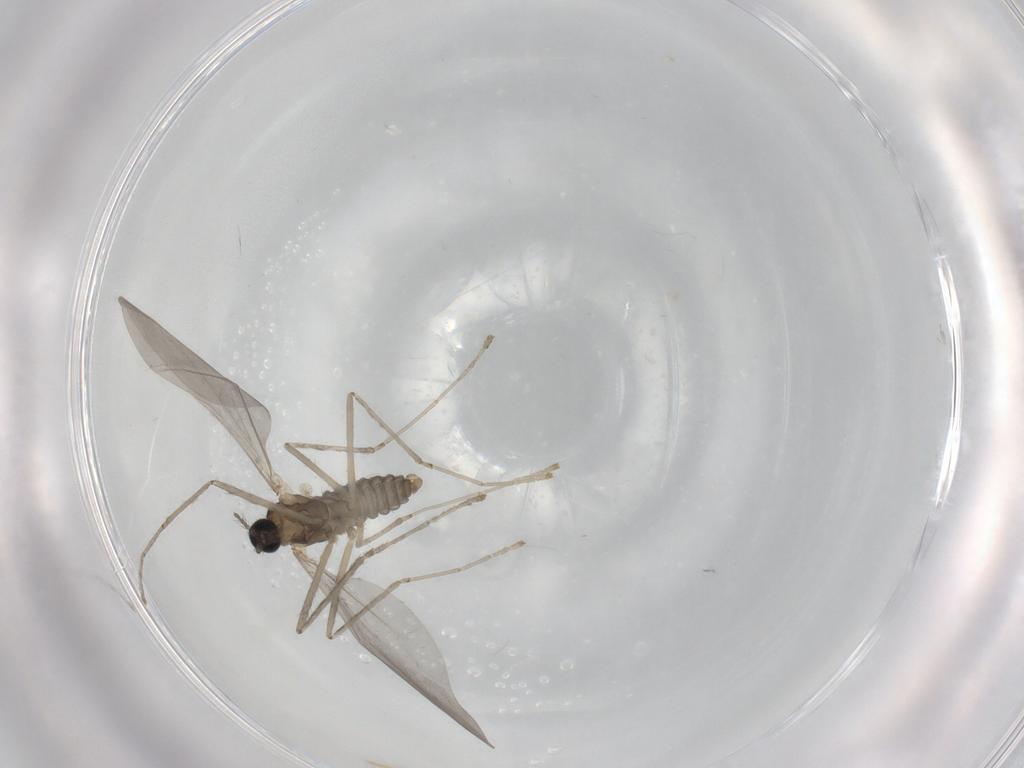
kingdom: Animalia
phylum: Arthropoda
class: Insecta
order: Diptera
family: Cecidomyiidae
